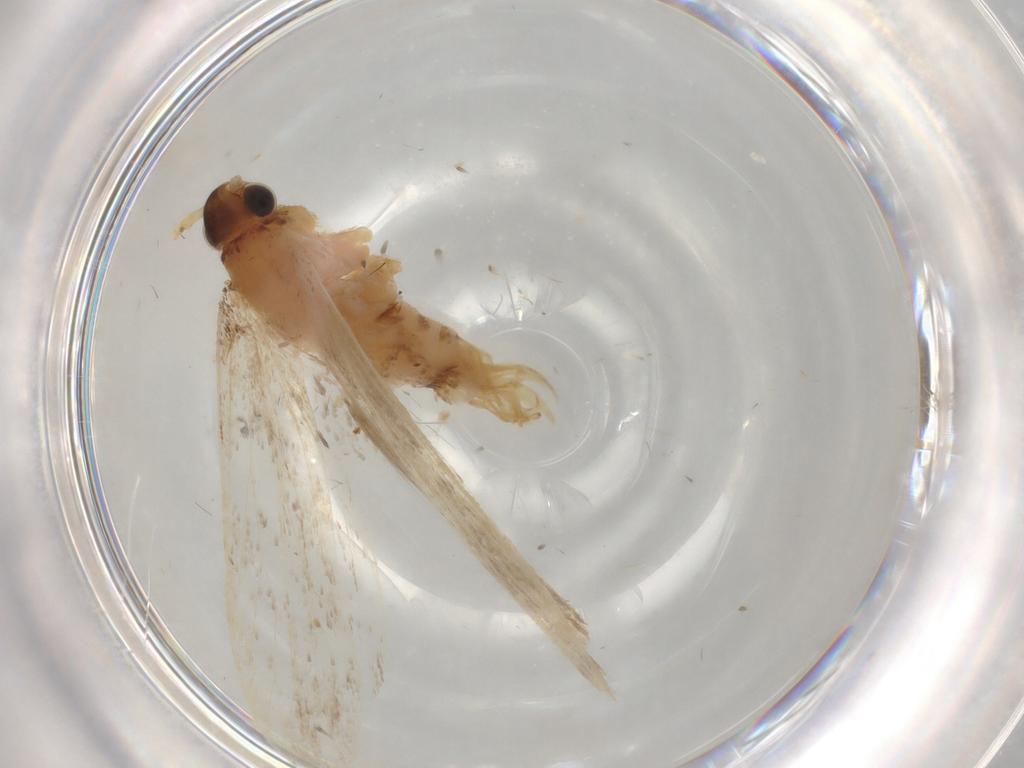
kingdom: Animalia
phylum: Arthropoda
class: Insecta
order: Lepidoptera
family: Lecithoceridae
